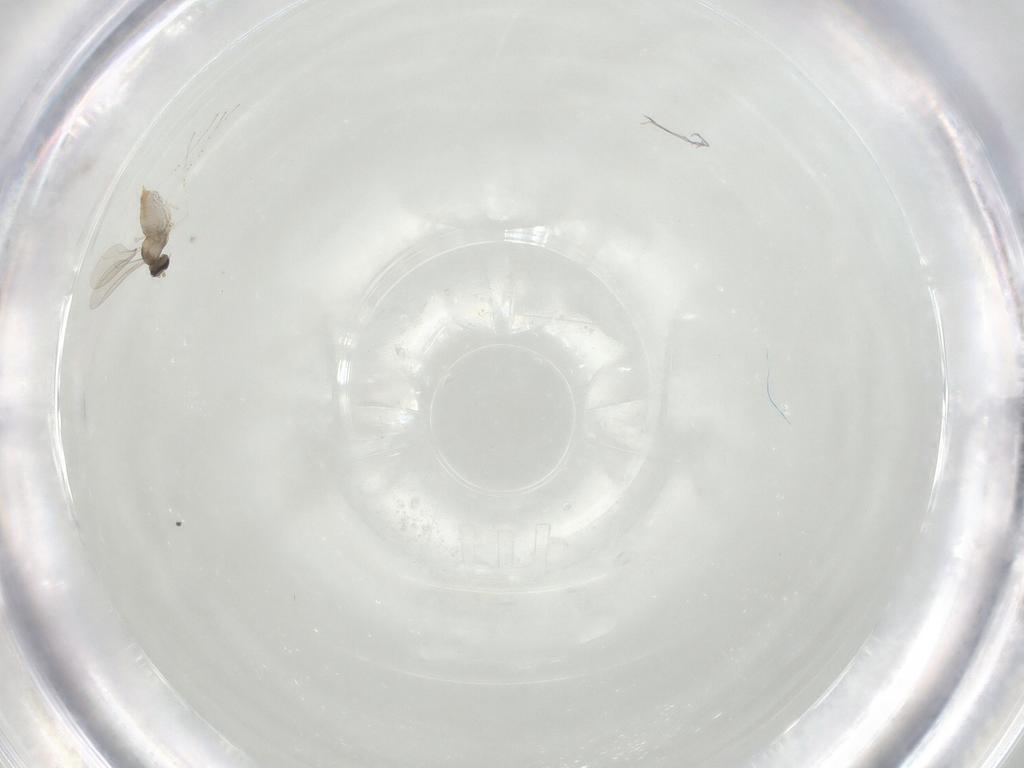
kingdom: Animalia
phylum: Arthropoda
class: Insecta
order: Diptera
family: Cecidomyiidae
